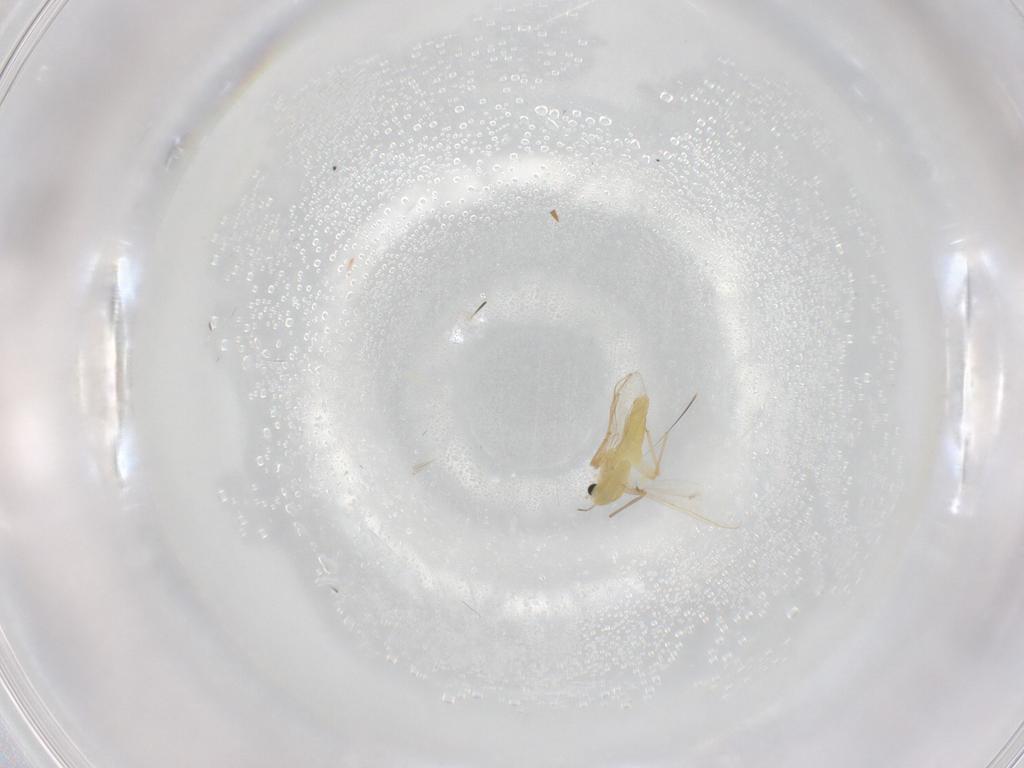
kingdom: Animalia
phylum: Arthropoda
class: Insecta
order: Diptera
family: Chironomidae
